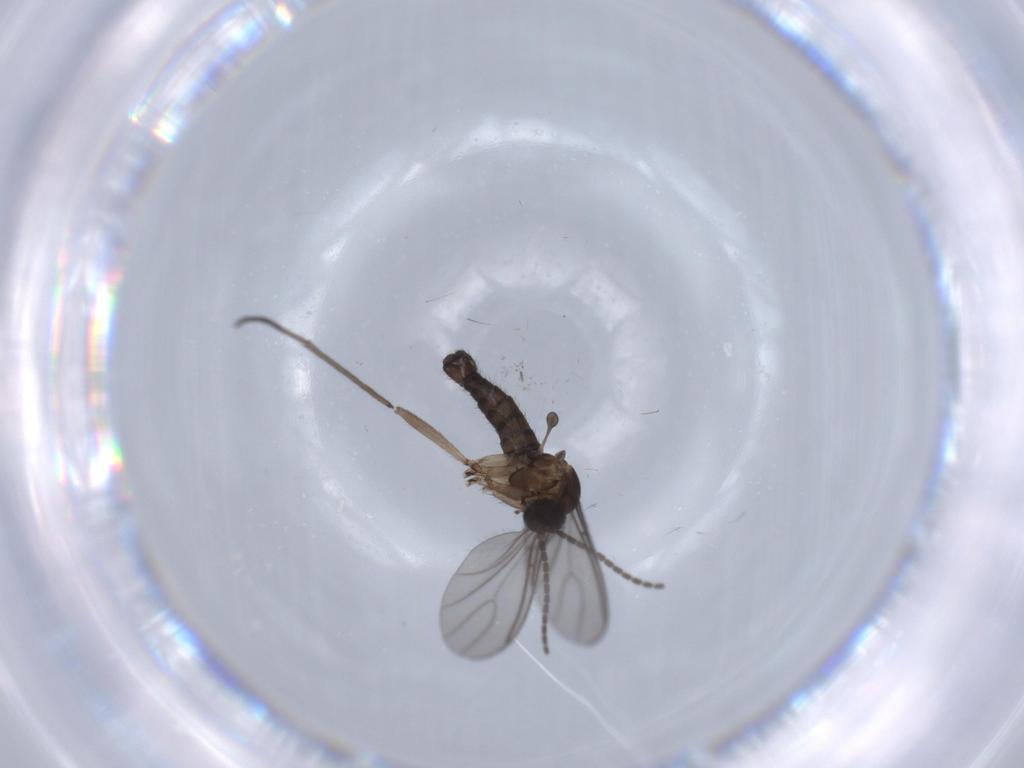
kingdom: Animalia
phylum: Arthropoda
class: Insecta
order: Diptera
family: Sciaridae
